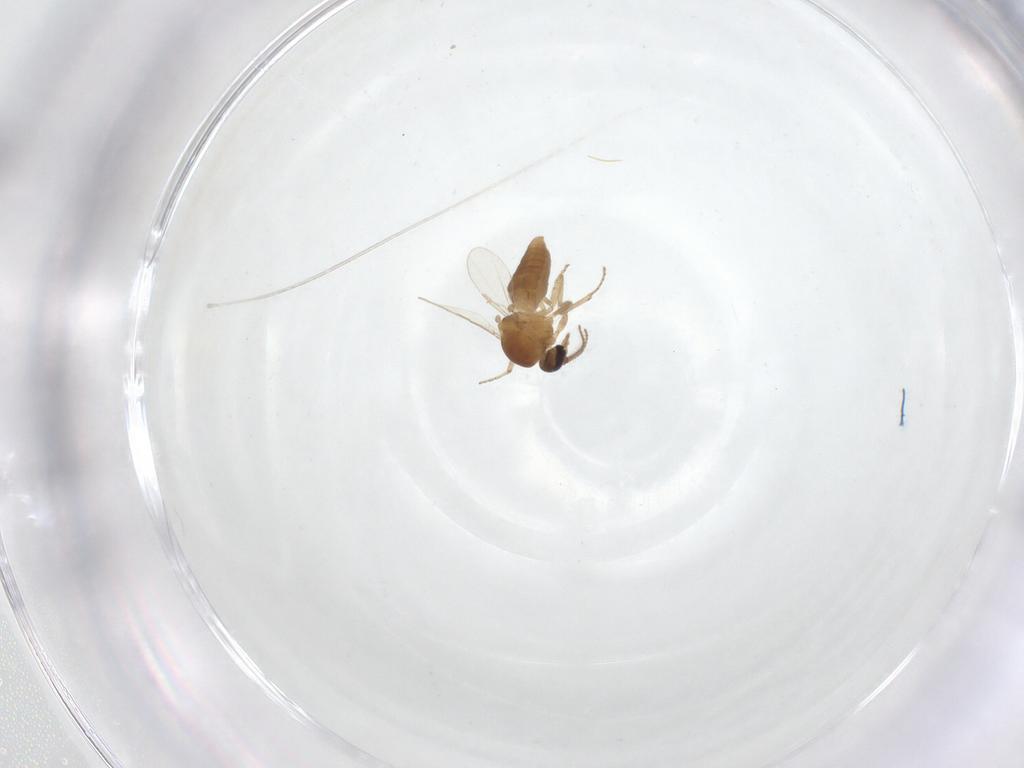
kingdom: Animalia
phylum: Arthropoda
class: Insecta
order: Diptera
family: Ceratopogonidae
